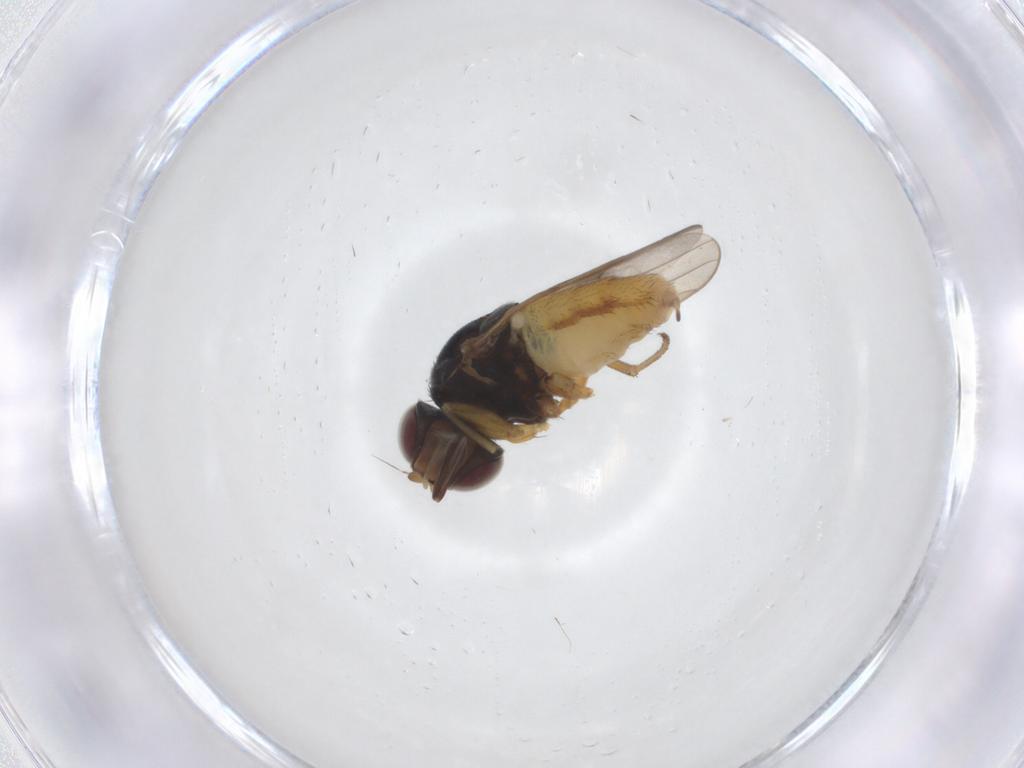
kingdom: Animalia
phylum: Arthropoda
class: Insecta
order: Diptera
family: Chloropidae
